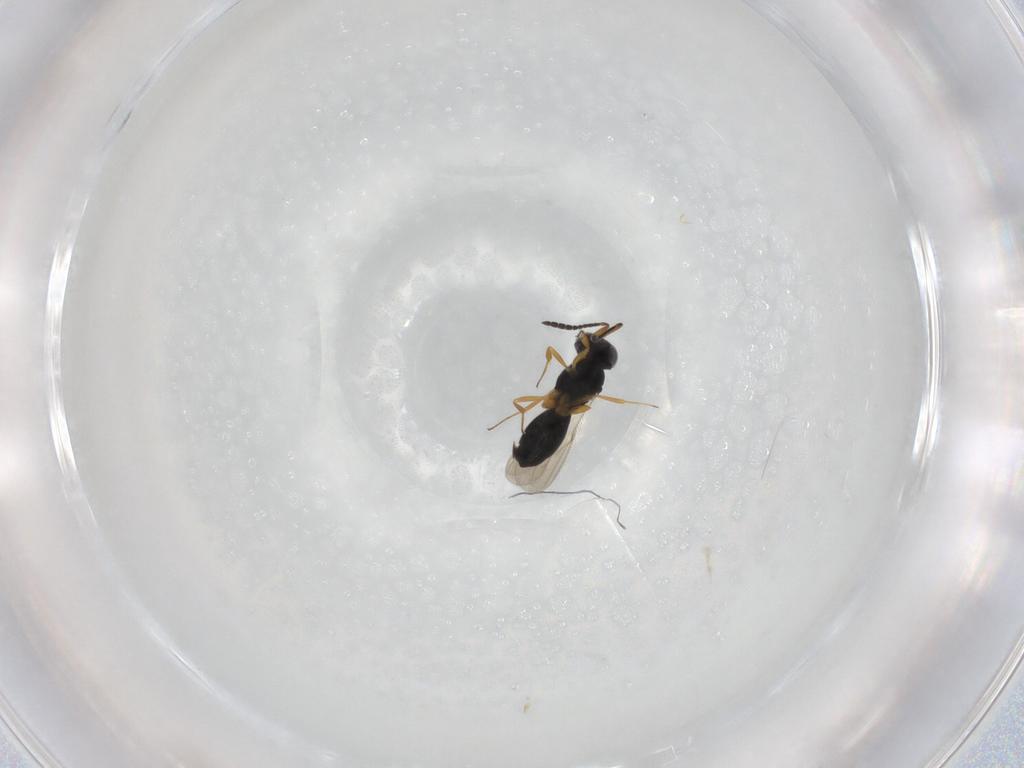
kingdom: Animalia
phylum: Arthropoda
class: Insecta
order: Hymenoptera
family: Scelionidae
